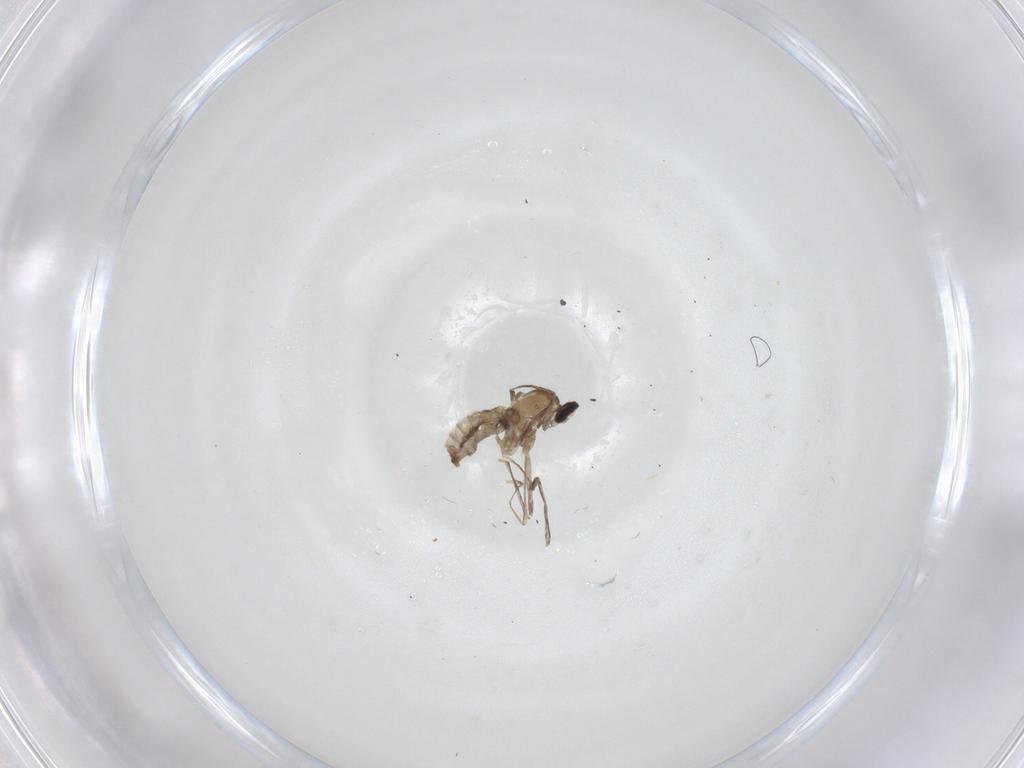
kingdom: Animalia
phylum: Arthropoda
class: Insecta
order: Diptera
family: Cecidomyiidae
